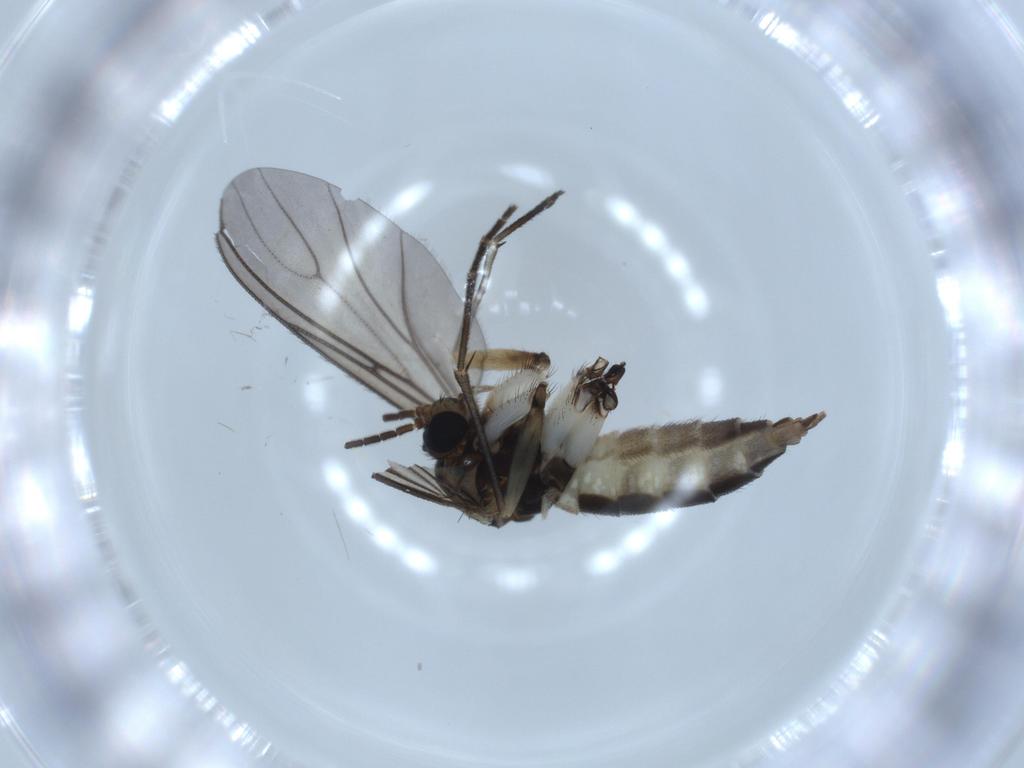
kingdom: Animalia
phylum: Arthropoda
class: Insecta
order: Diptera
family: Sciaridae
